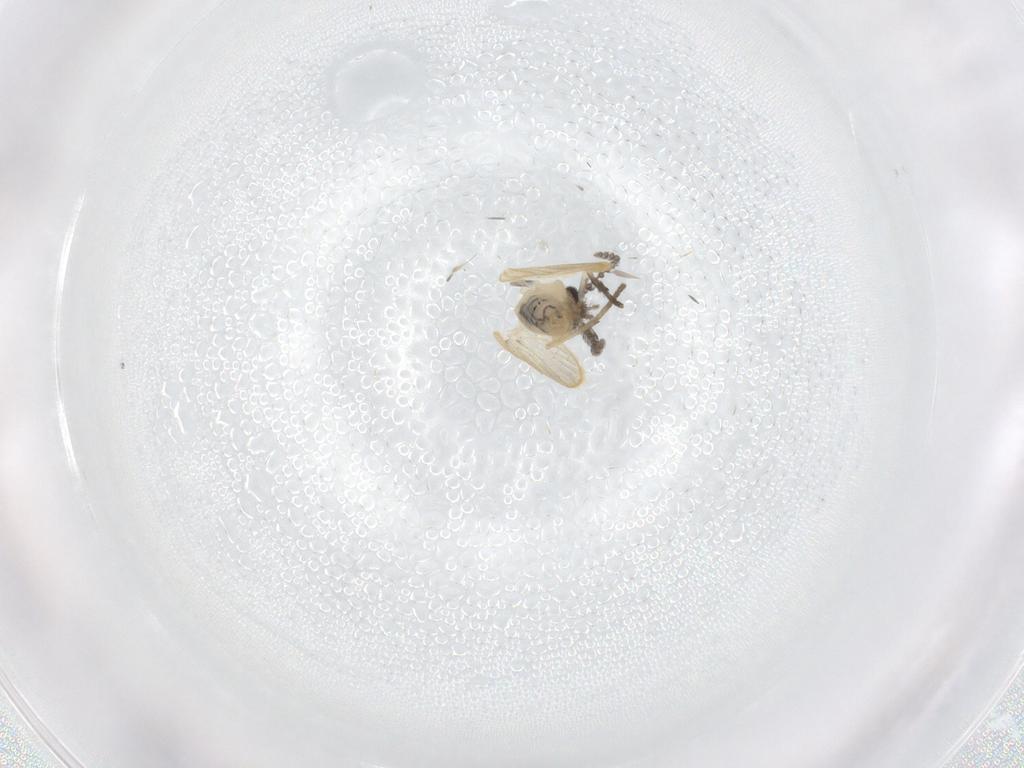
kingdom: Animalia
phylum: Arthropoda
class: Insecta
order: Diptera
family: Psychodidae
